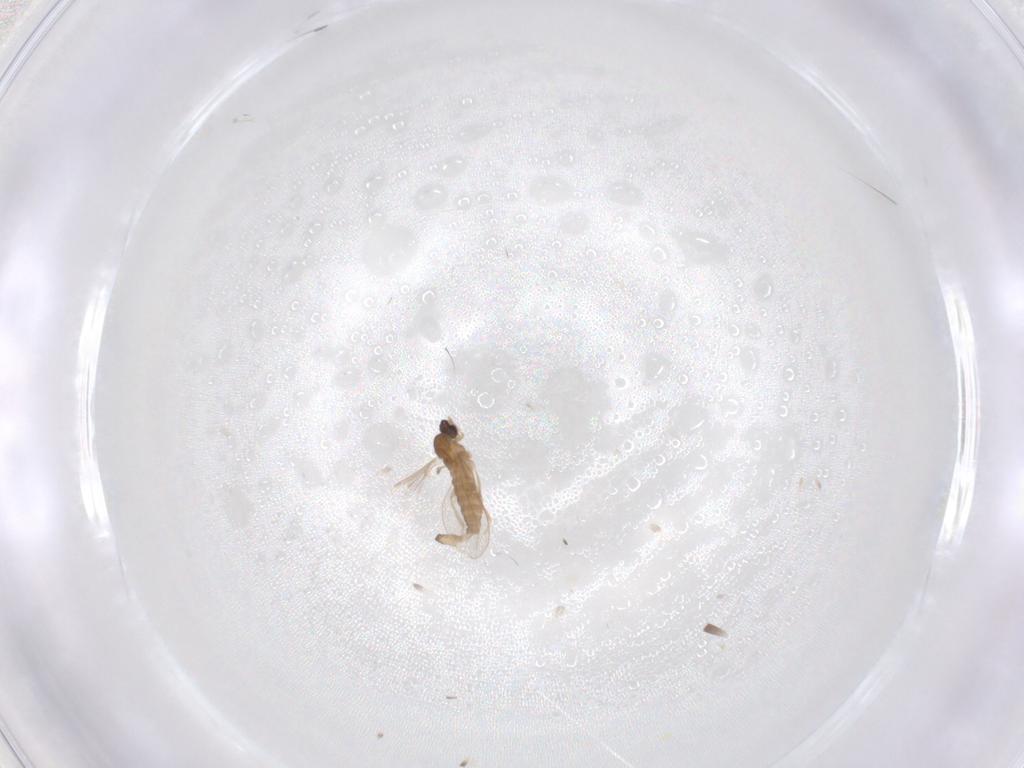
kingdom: Animalia
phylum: Arthropoda
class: Insecta
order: Diptera
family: Cecidomyiidae
